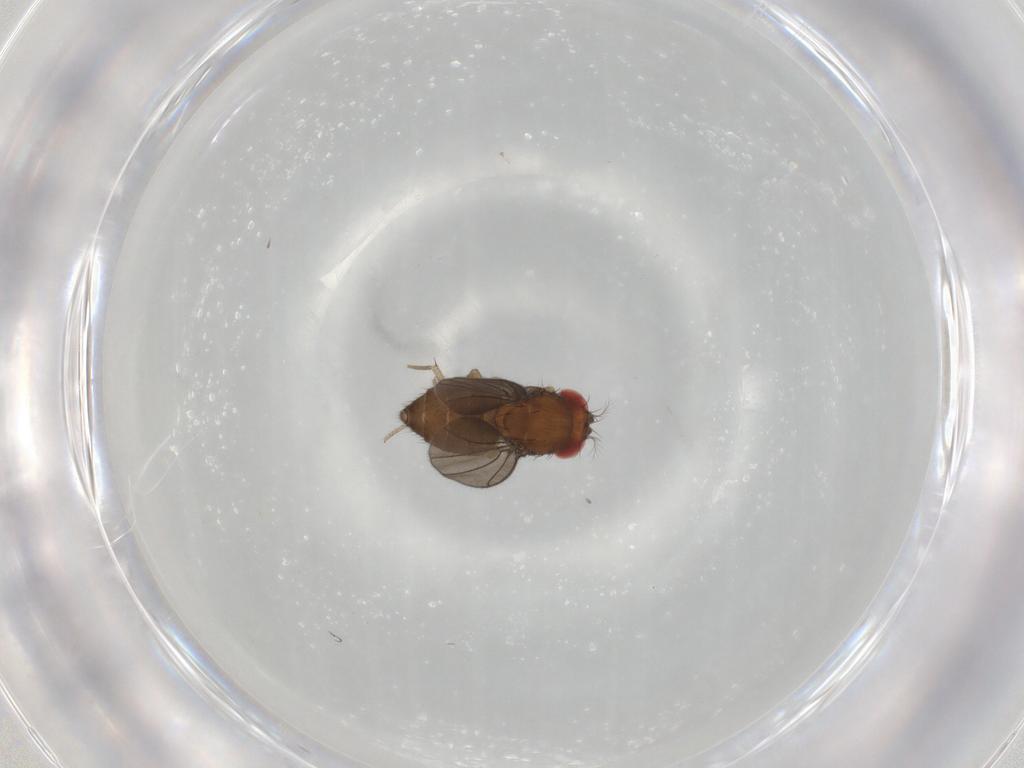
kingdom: Animalia
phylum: Arthropoda
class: Insecta
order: Diptera
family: Drosophilidae
